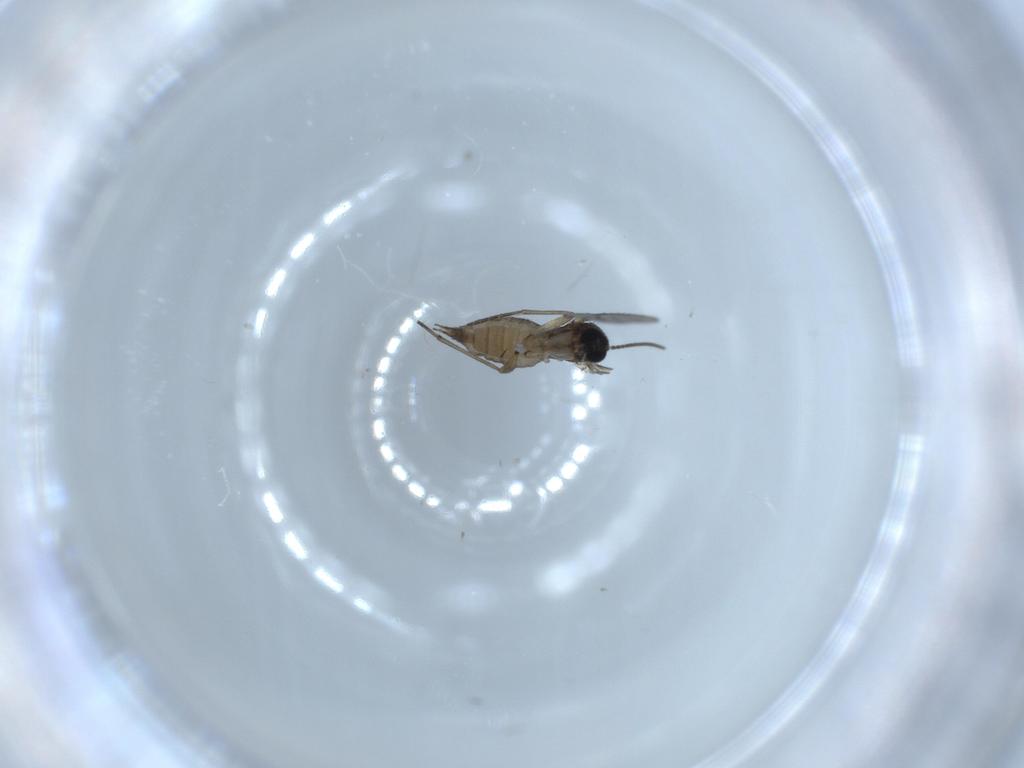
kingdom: Animalia
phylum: Arthropoda
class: Insecta
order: Diptera
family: Sciaridae
